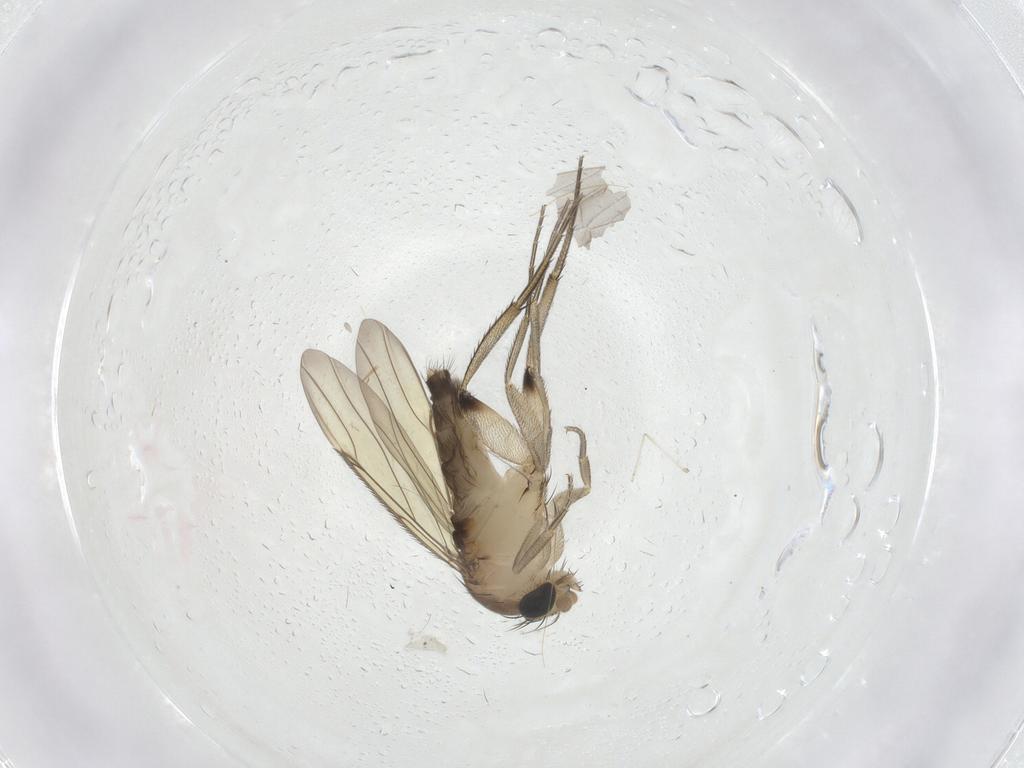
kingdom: Animalia
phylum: Arthropoda
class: Insecta
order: Diptera
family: Phoridae
